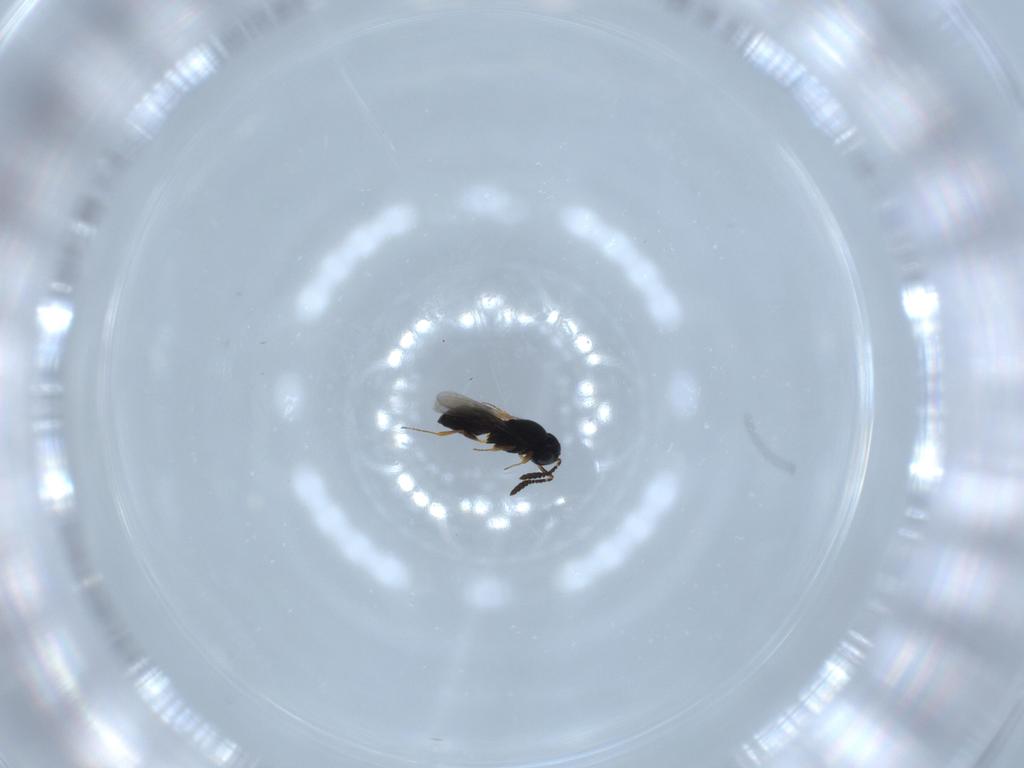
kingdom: Animalia
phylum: Arthropoda
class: Insecta
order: Hymenoptera
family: Scelionidae
